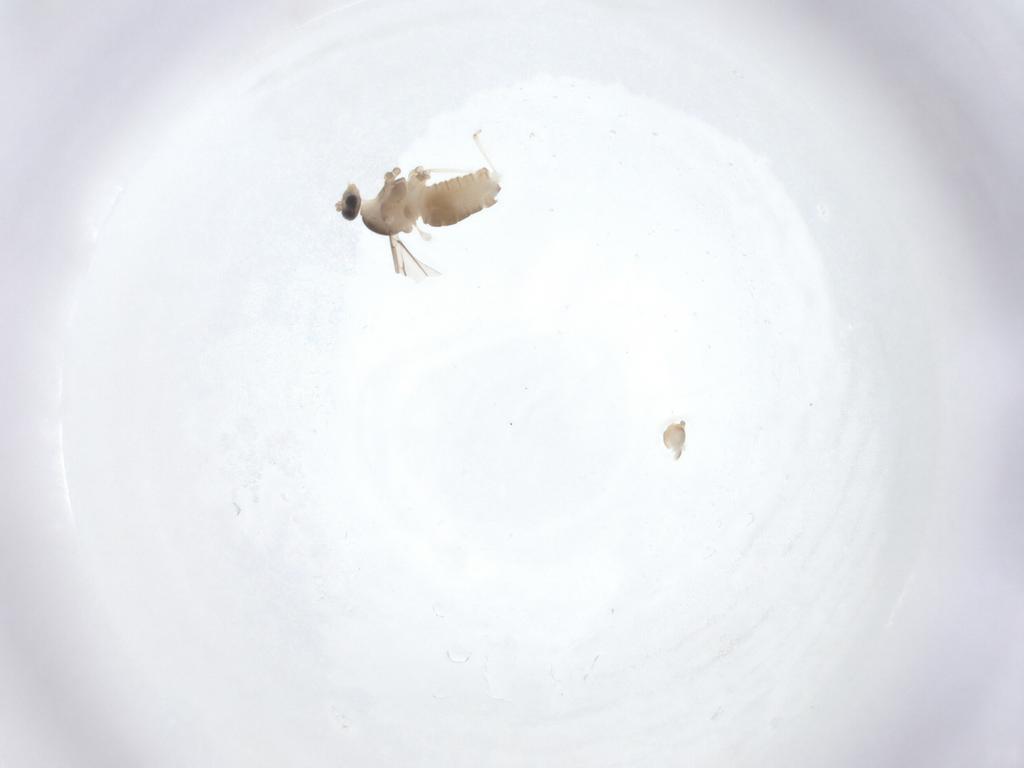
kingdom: Animalia
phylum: Arthropoda
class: Insecta
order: Diptera
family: Cecidomyiidae
